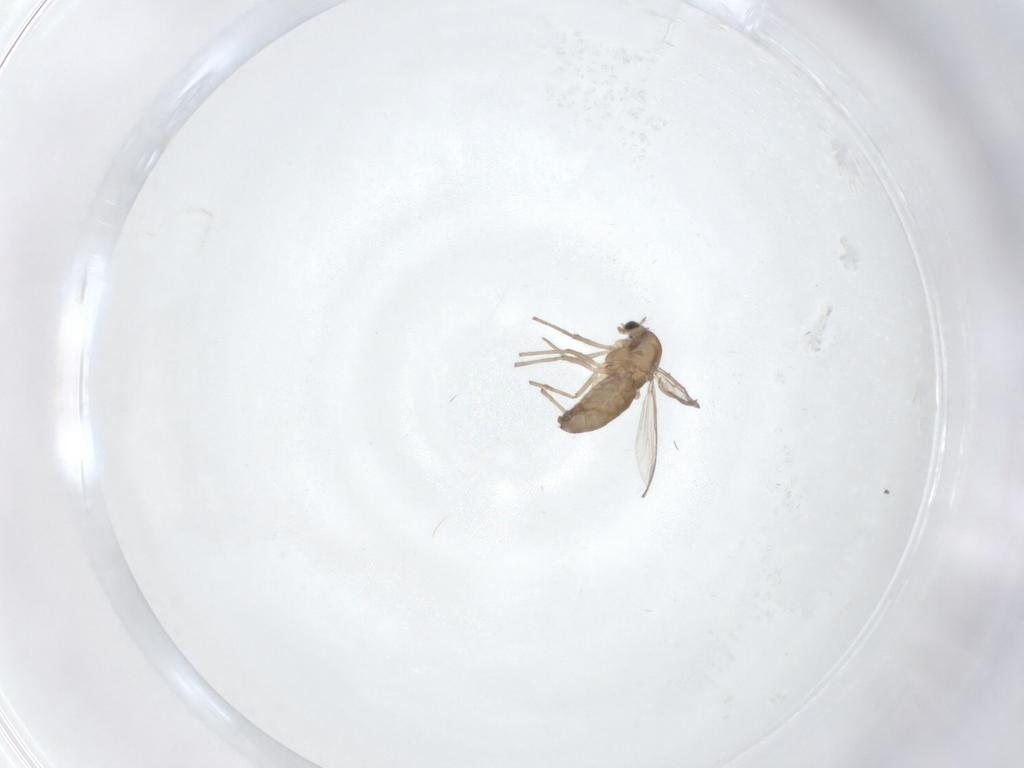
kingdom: Animalia
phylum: Arthropoda
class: Insecta
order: Diptera
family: Chironomidae
